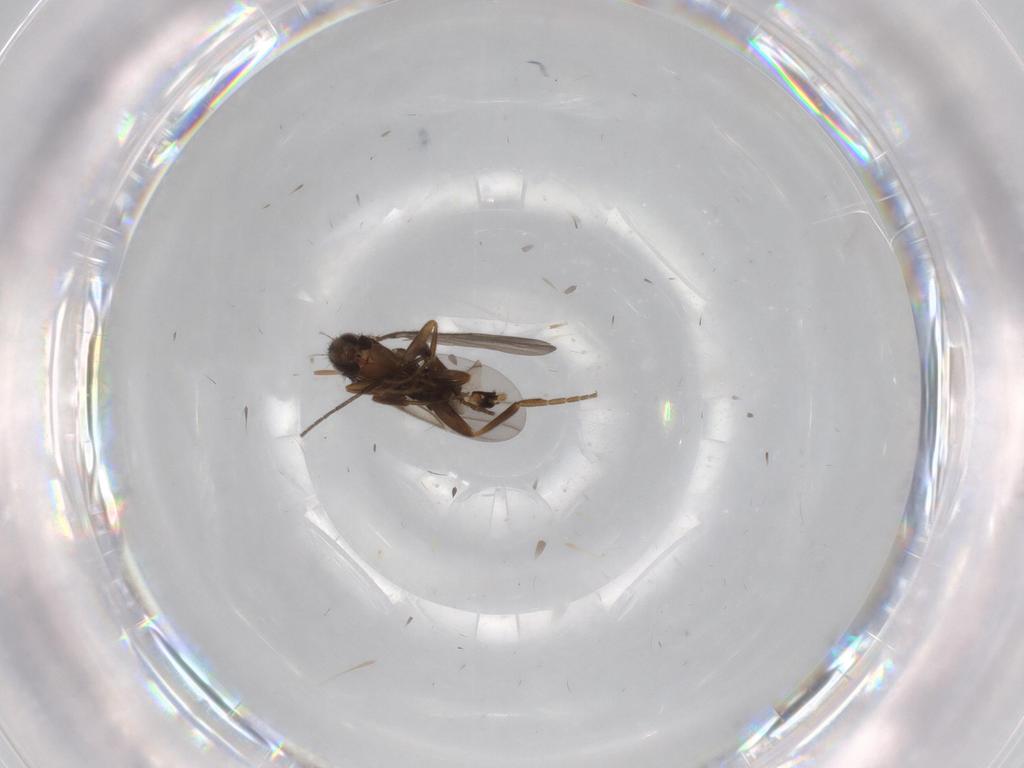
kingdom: Animalia
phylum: Arthropoda
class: Insecta
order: Diptera
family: Phoridae
